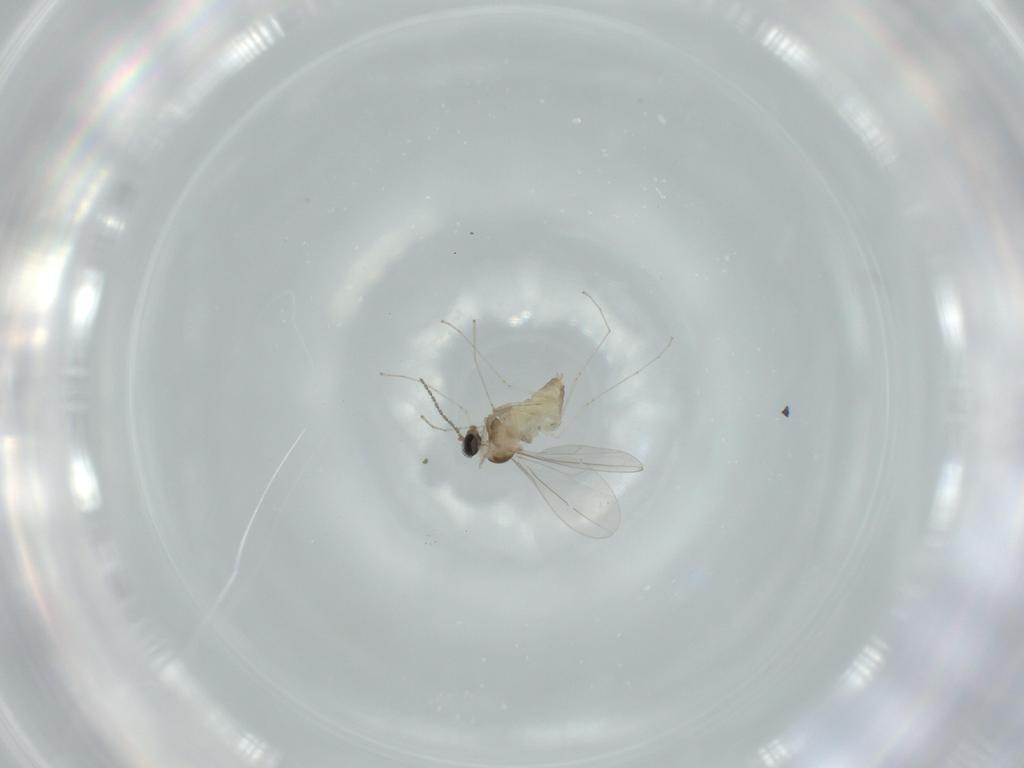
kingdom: Animalia
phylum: Arthropoda
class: Insecta
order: Diptera
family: Cecidomyiidae
